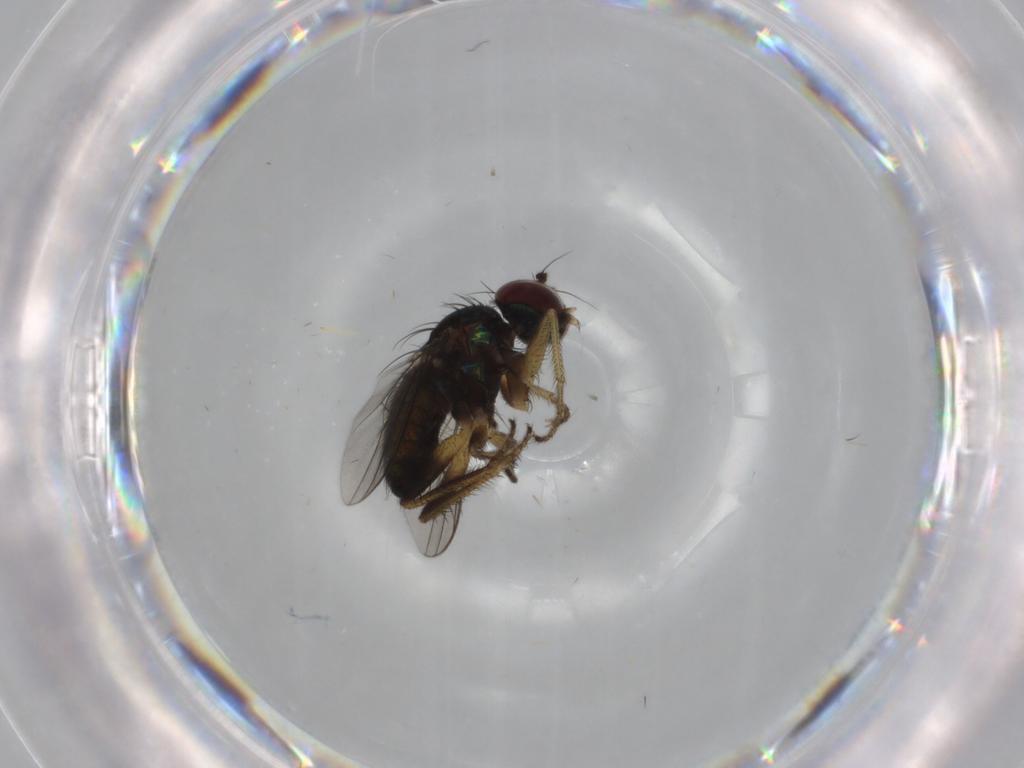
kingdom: Animalia
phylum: Arthropoda
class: Insecta
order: Diptera
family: Dolichopodidae
